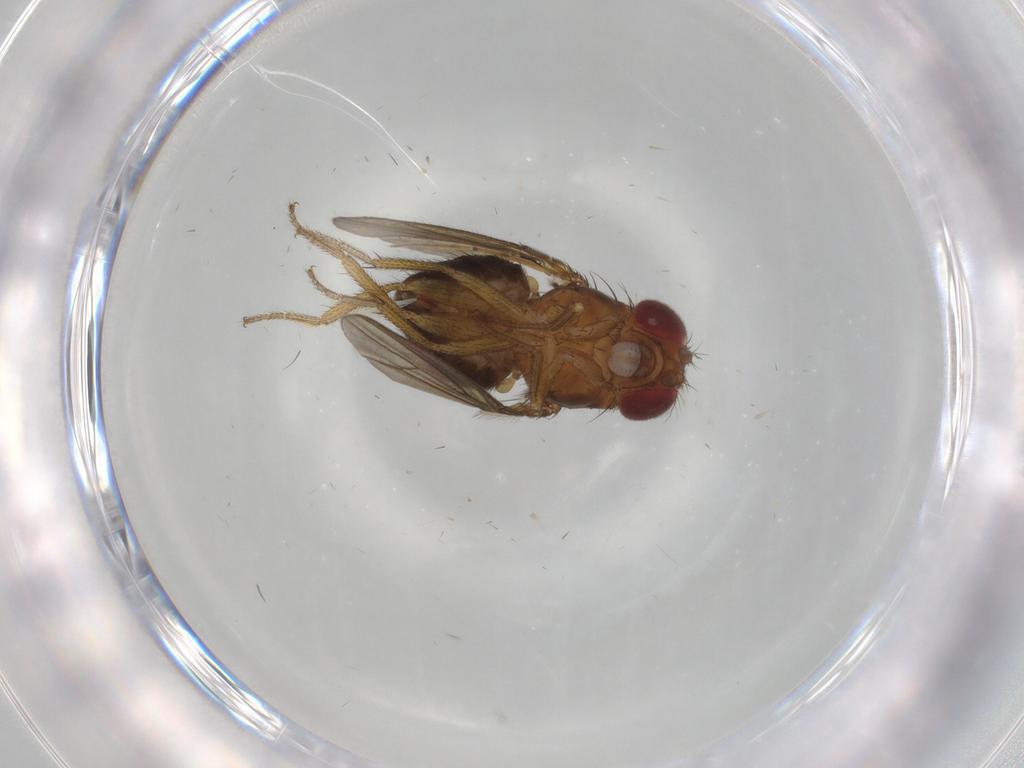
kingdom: Animalia
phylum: Arthropoda
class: Insecta
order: Diptera
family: Drosophilidae
